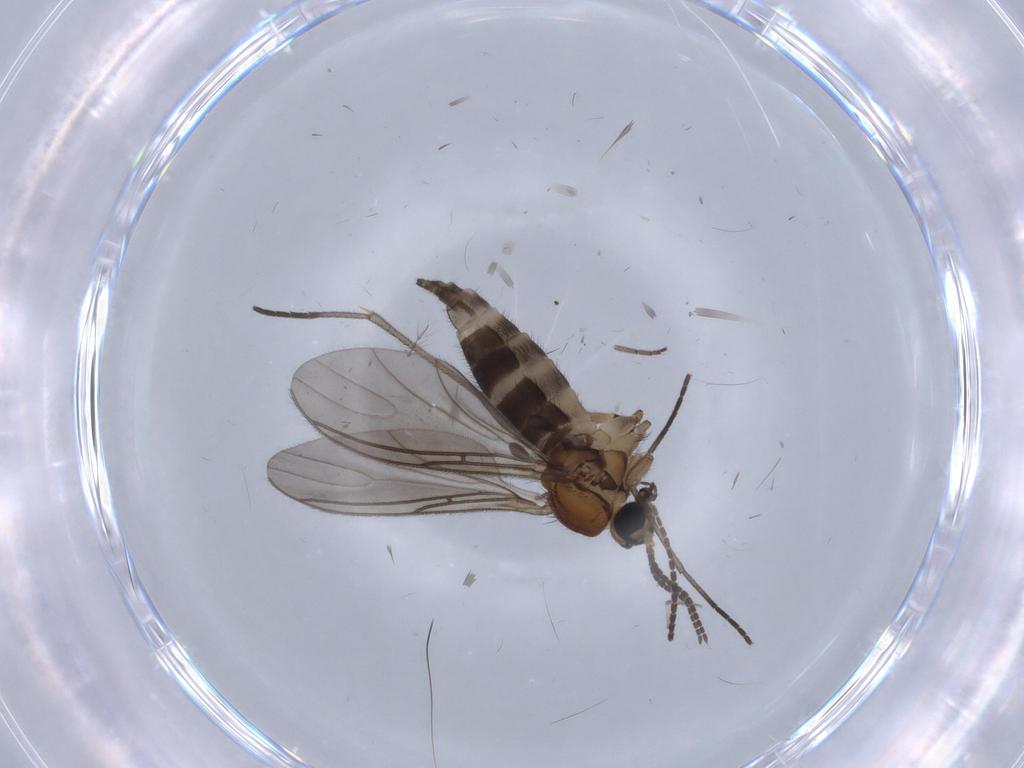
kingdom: Animalia
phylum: Arthropoda
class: Insecta
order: Diptera
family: Sciaridae
